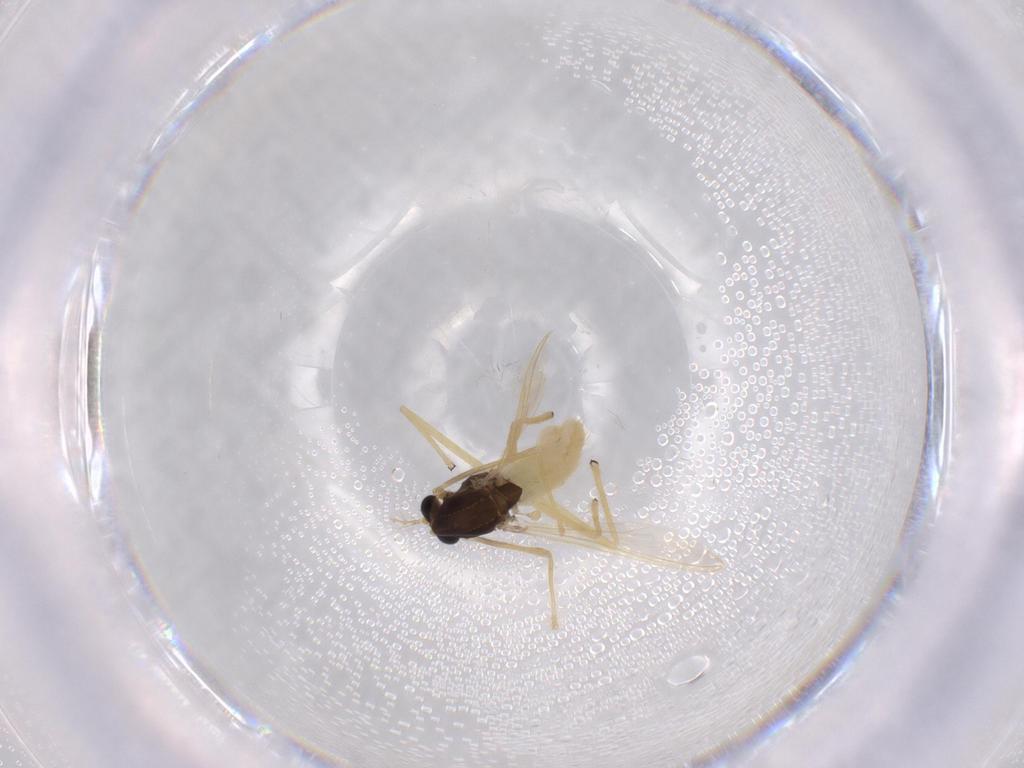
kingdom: Animalia
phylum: Arthropoda
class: Insecta
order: Diptera
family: Chironomidae
